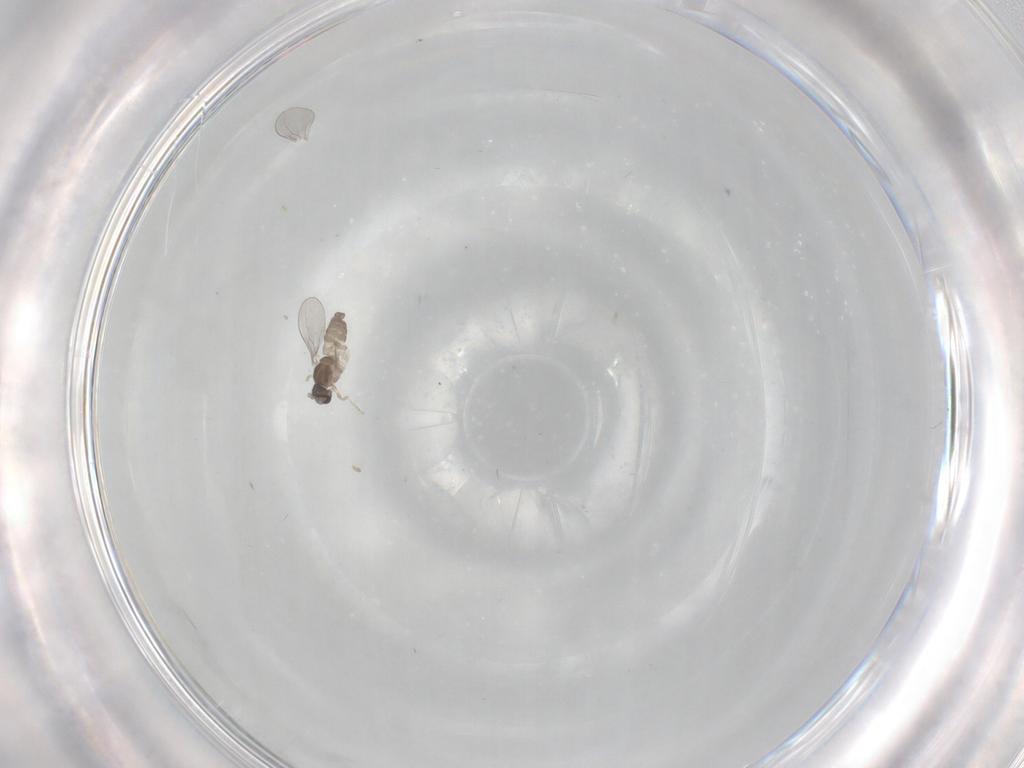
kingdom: Animalia
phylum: Arthropoda
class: Insecta
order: Diptera
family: Cecidomyiidae
